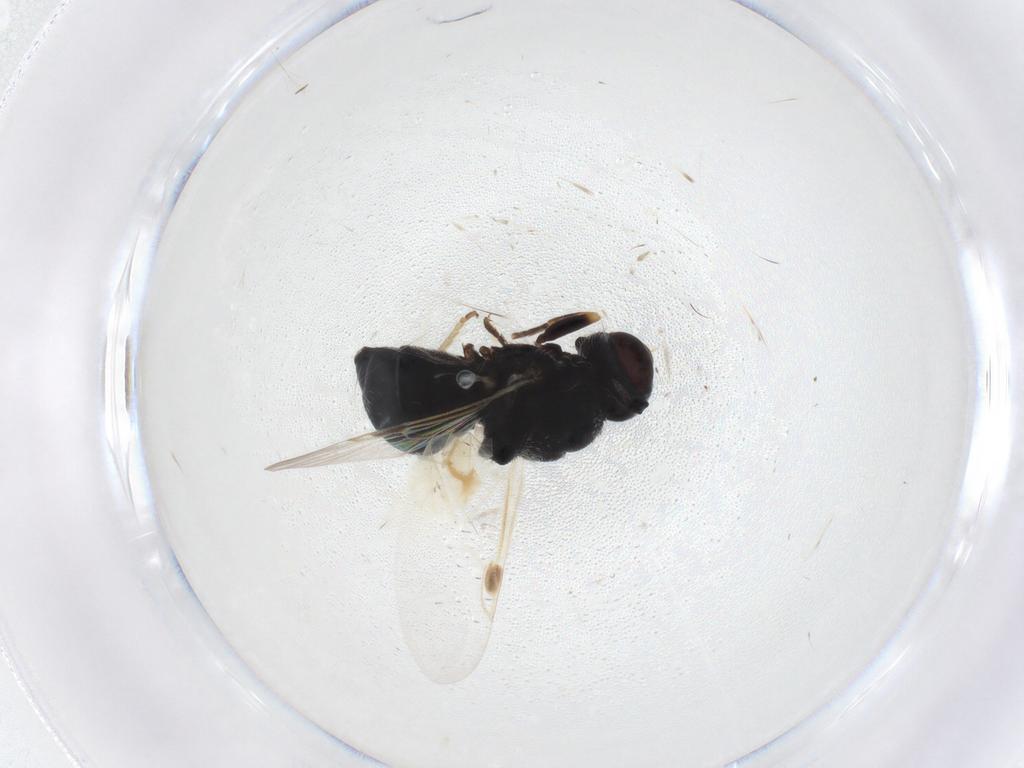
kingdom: Animalia
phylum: Arthropoda
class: Insecta
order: Diptera
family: Stratiomyidae
